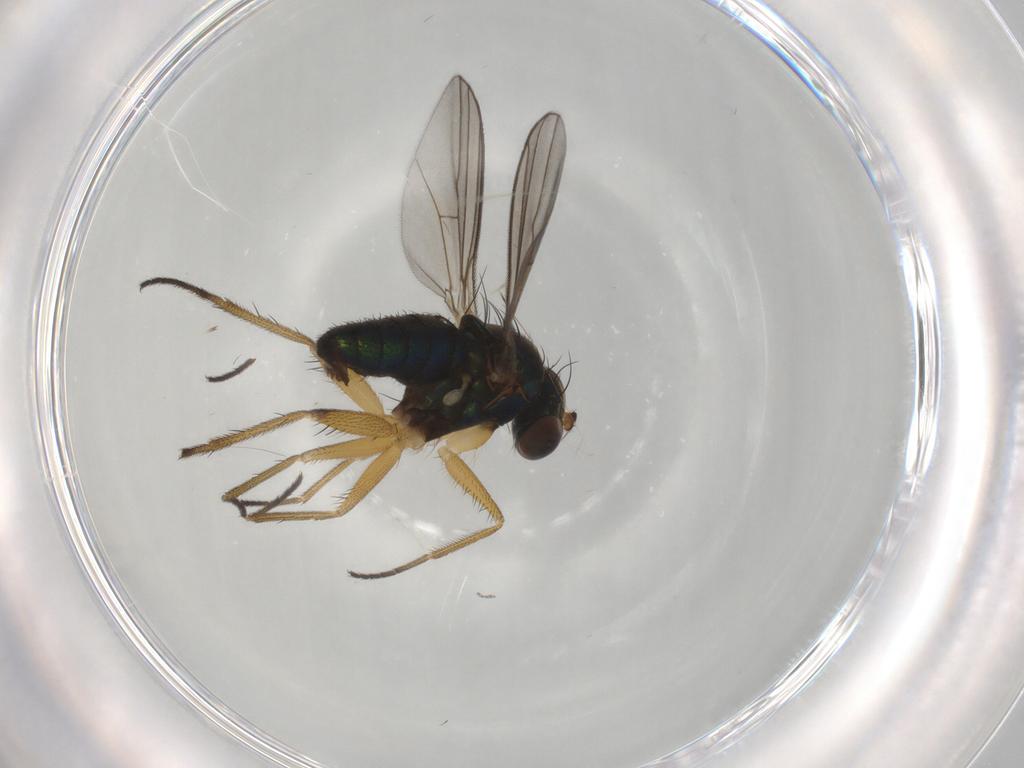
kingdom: Animalia
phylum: Arthropoda
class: Insecta
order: Diptera
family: Dolichopodidae
